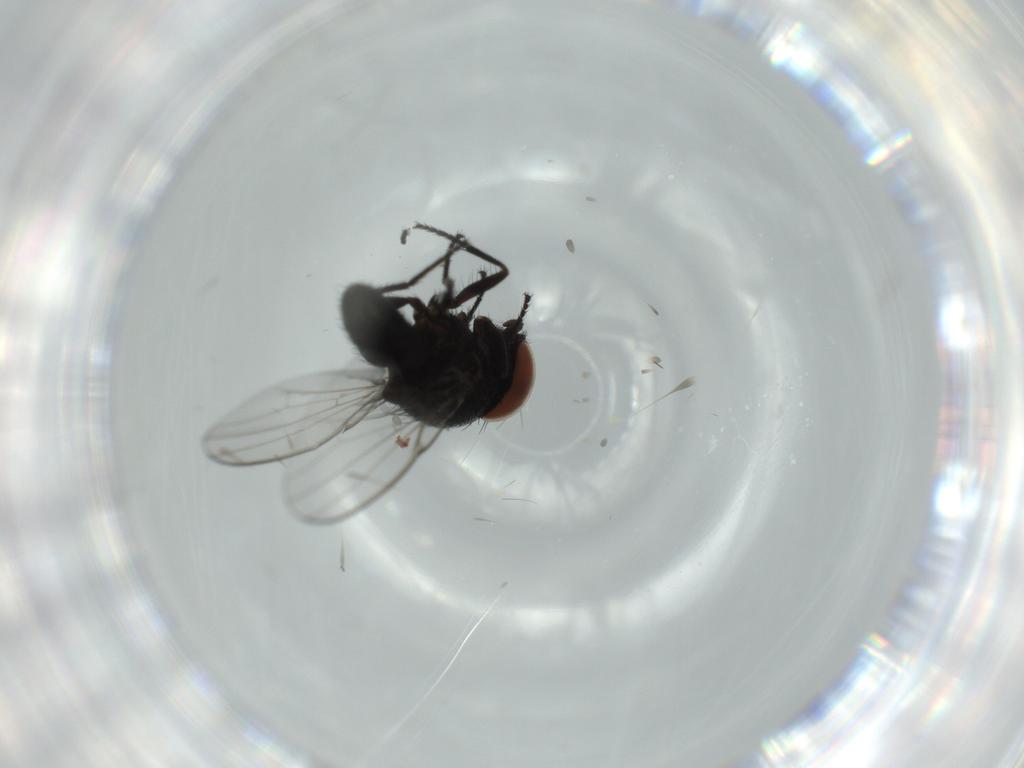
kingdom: Animalia
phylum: Arthropoda
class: Insecta
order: Diptera
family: Milichiidae
